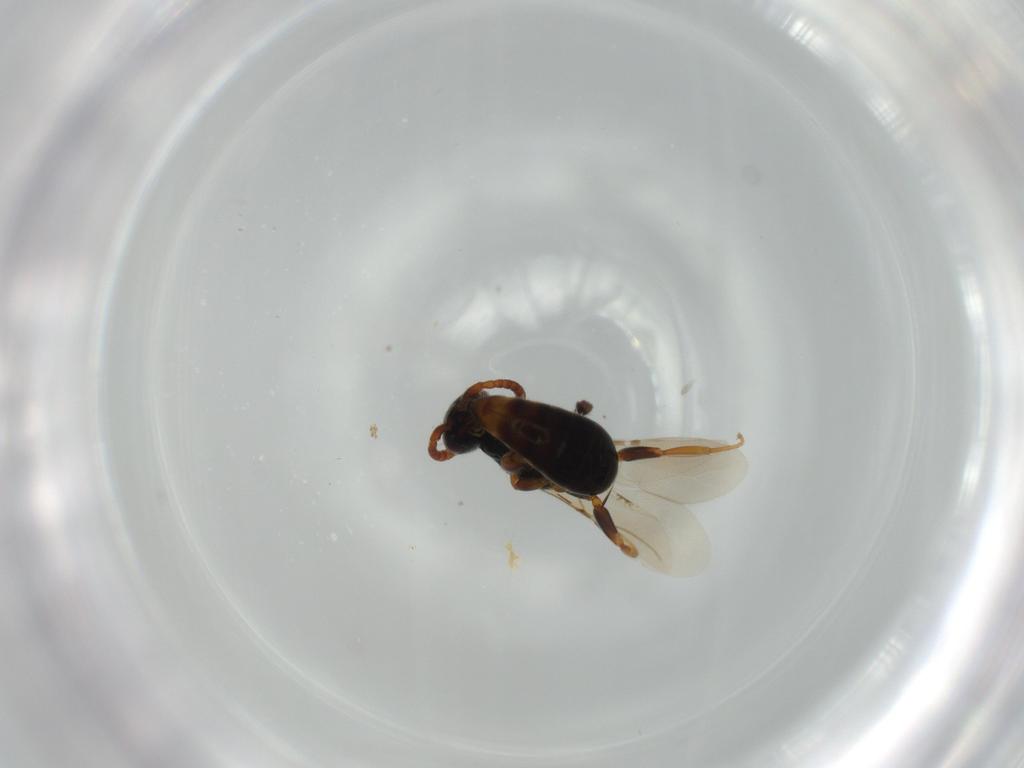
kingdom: Animalia
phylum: Arthropoda
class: Insecta
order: Hymenoptera
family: Bethylidae
